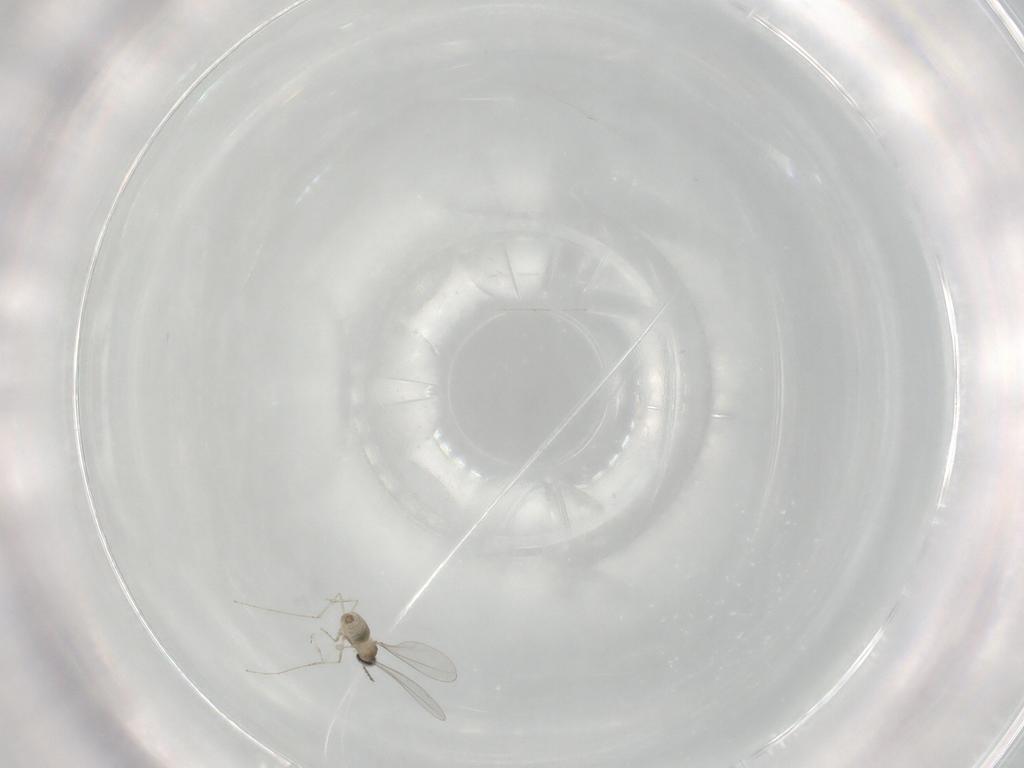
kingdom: Animalia
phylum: Arthropoda
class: Insecta
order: Diptera
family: Cecidomyiidae
